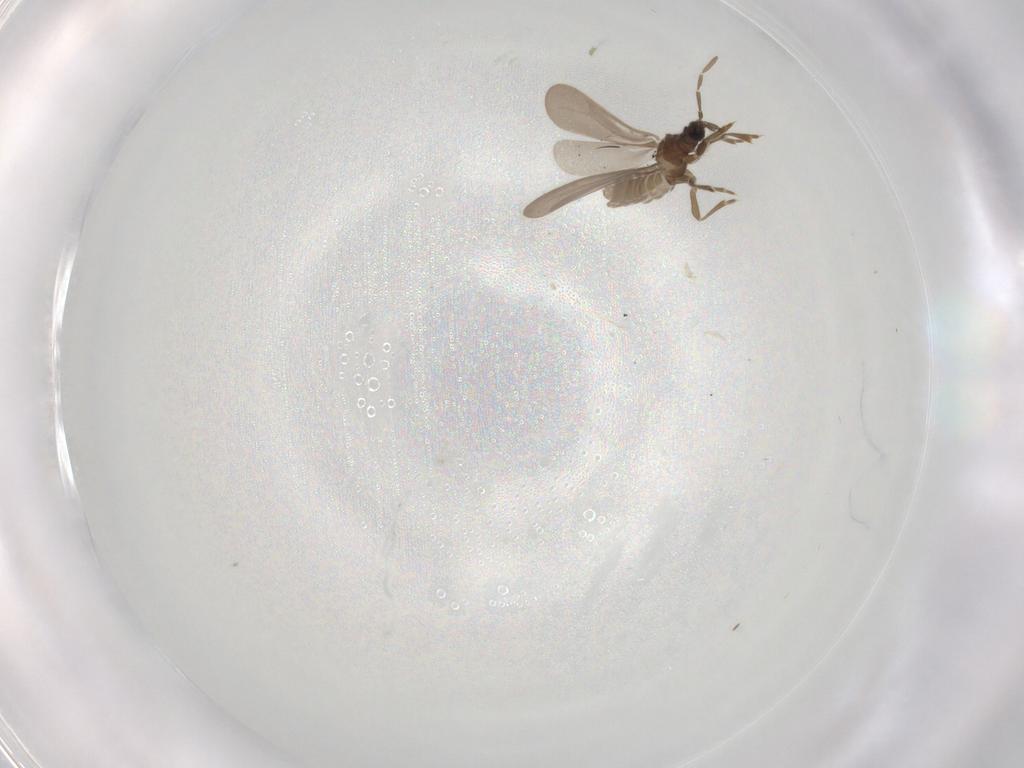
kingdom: Animalia
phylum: Arthropoda
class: Insecta
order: Hemiptera
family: Enicocephalidae
